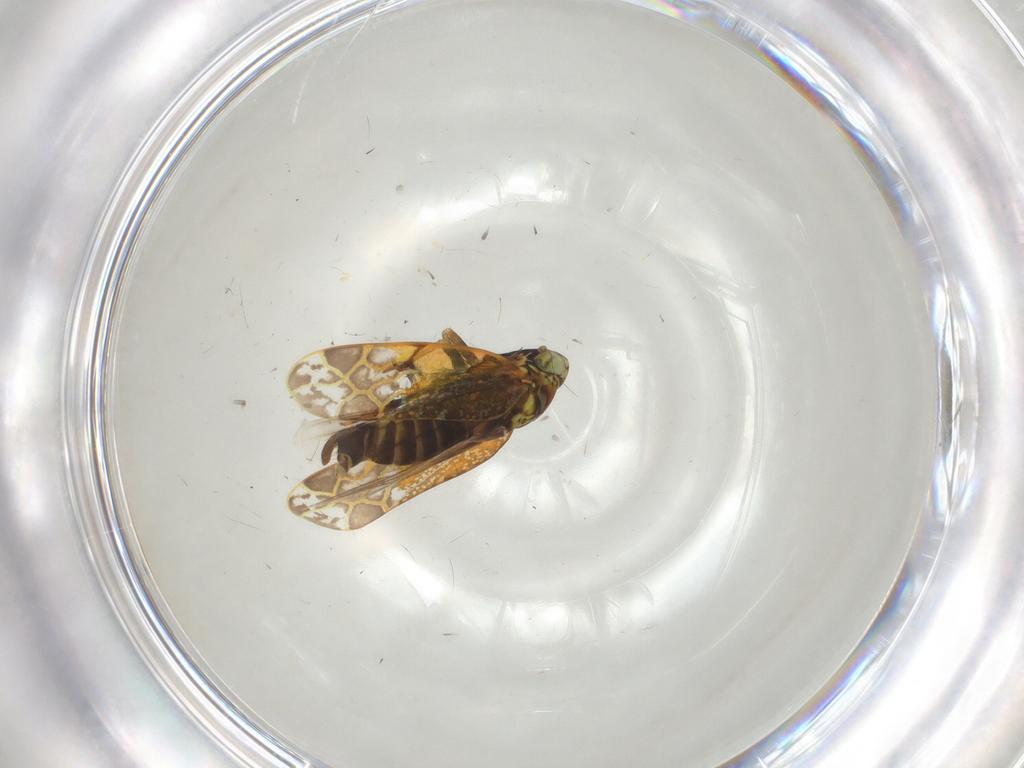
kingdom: Animalia
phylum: Arthropoda
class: Insecta
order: Hemiptera
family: Cicadellidae
